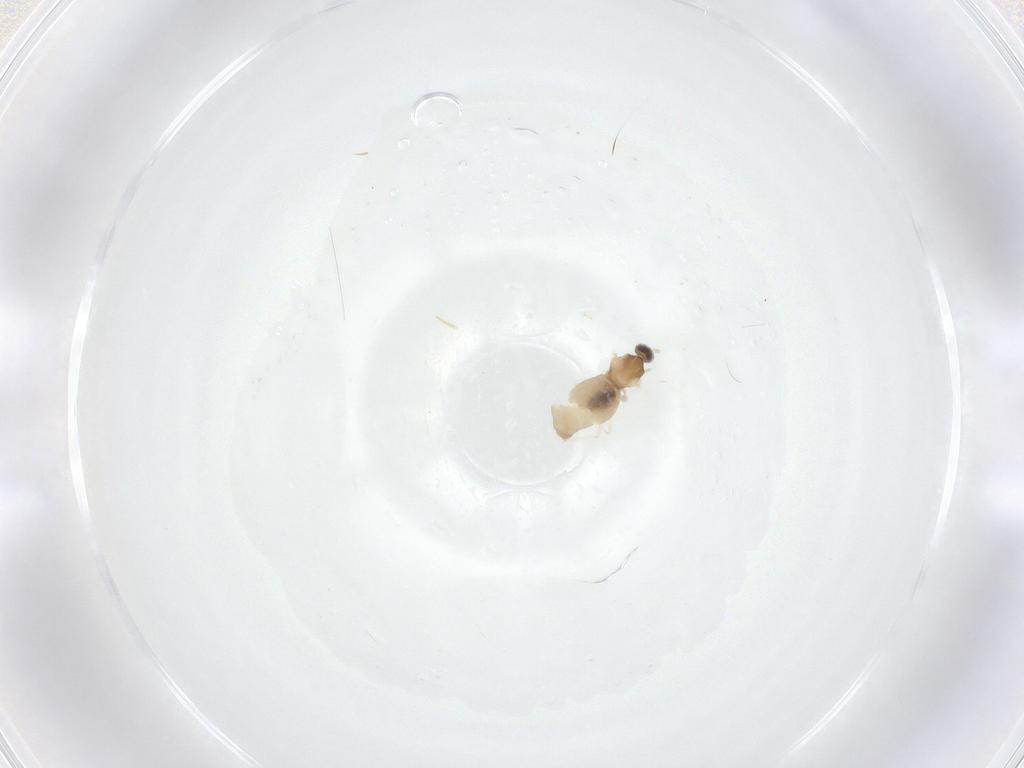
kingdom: Animalia
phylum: Arthropoda
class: Insecta
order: Diptera
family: Cecidomyiidae
